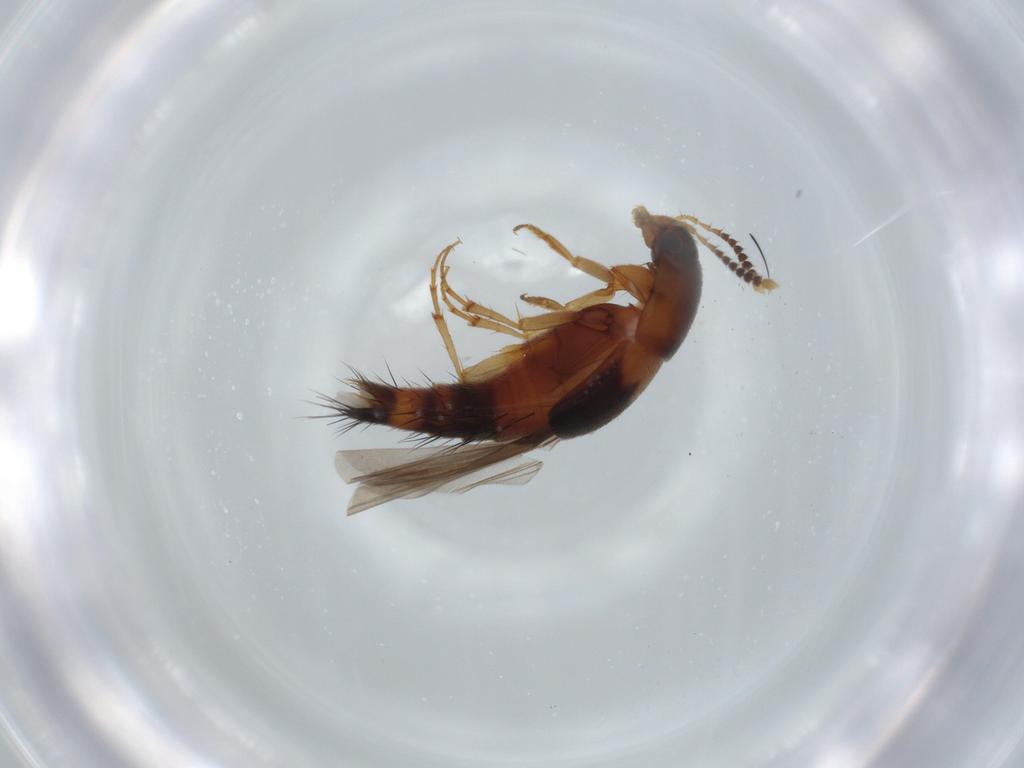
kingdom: Animalia
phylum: Arthropoda
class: Insecta
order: Coleoptera
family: Staphylinidae
